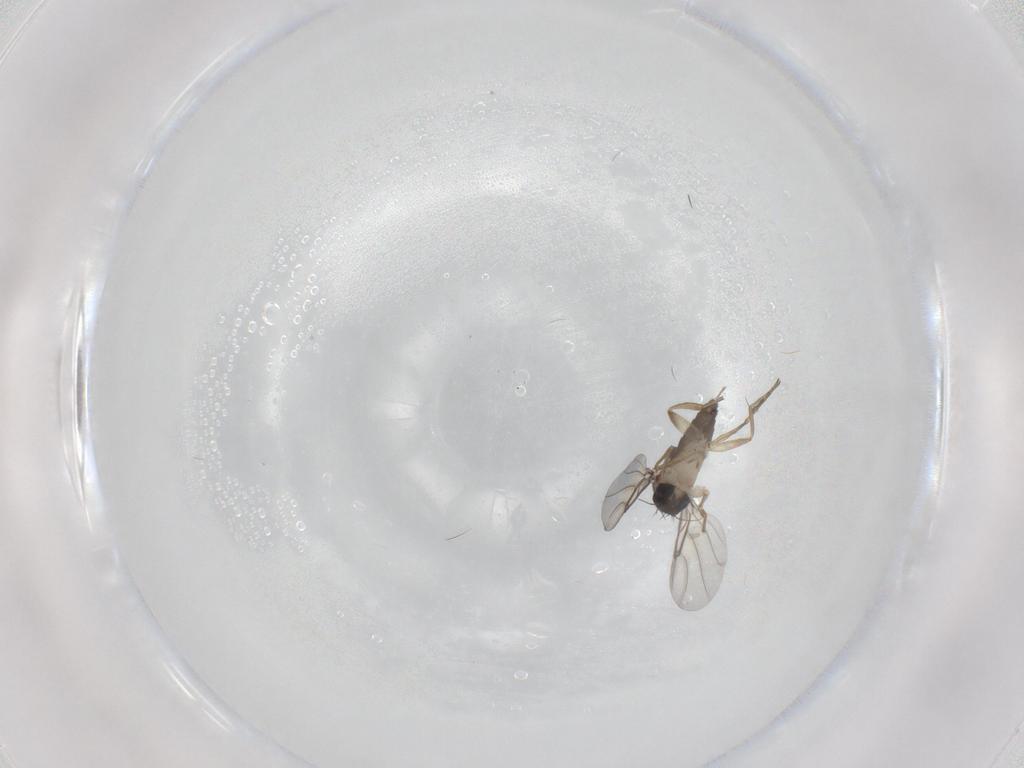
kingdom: Animalia
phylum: Arthropoda
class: Insecta
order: Diptera
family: Phoridae
